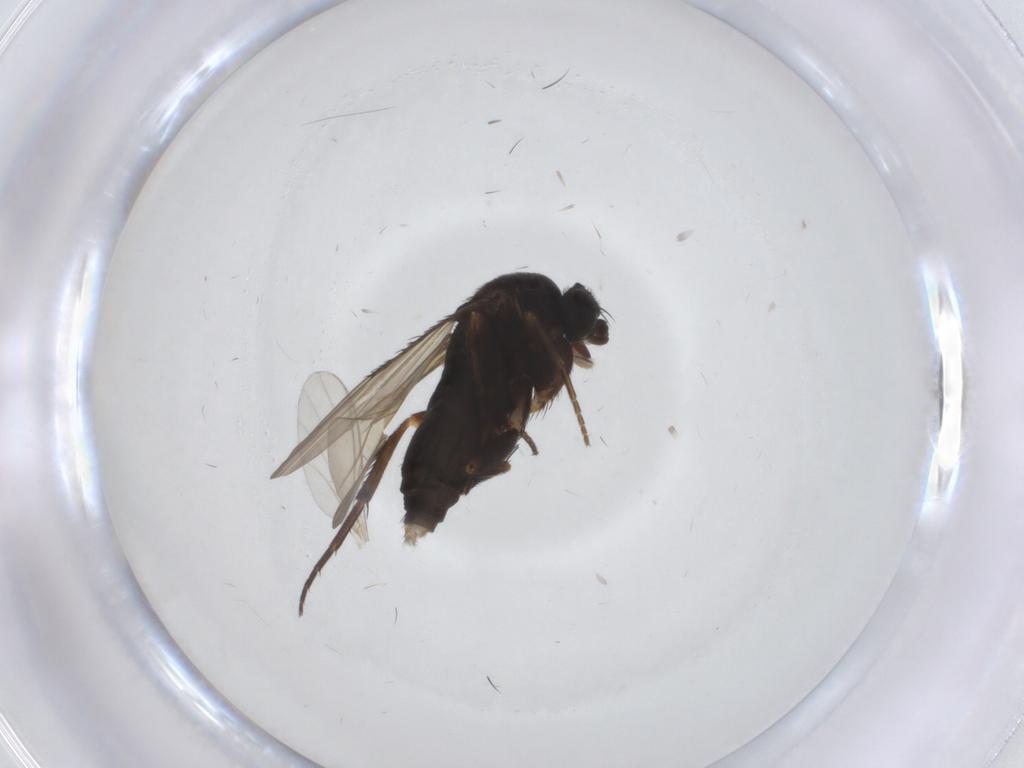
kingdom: Animalia
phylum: Arthropoda
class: Insecta
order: Diptera
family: Phoridae
